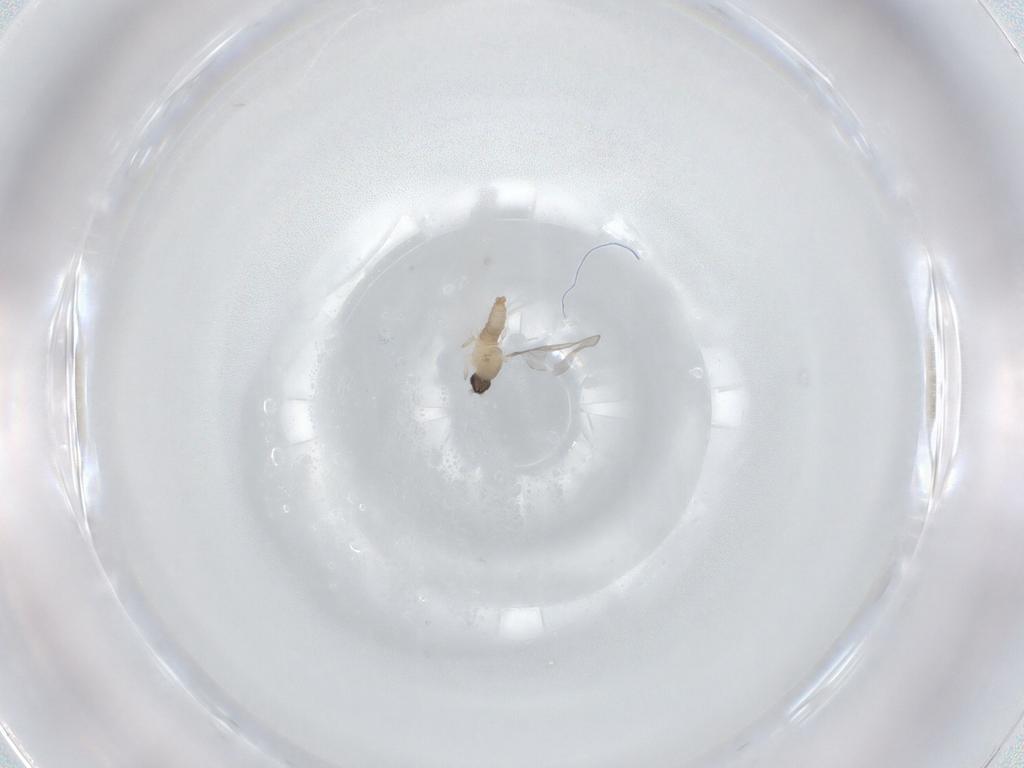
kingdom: Animalia
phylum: Arthropoda
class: Insecta
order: Diptera
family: Cecidomyiidae
